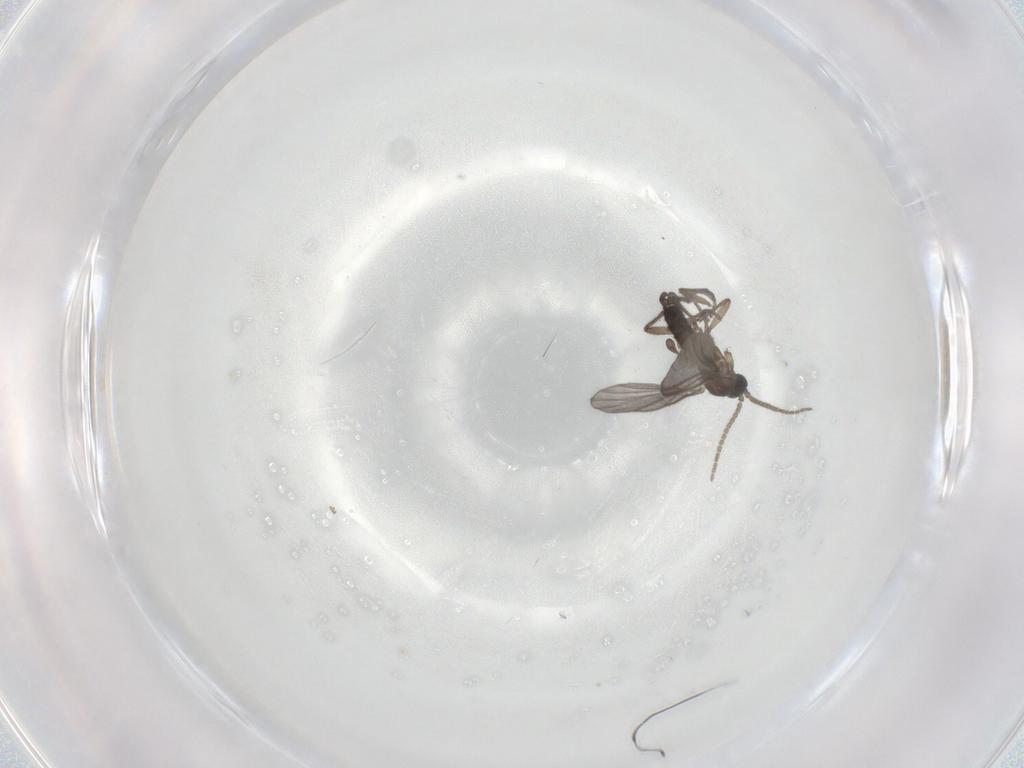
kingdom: Animalia
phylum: Arthropoda
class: Insecta
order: Diptera
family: Sciaridae
